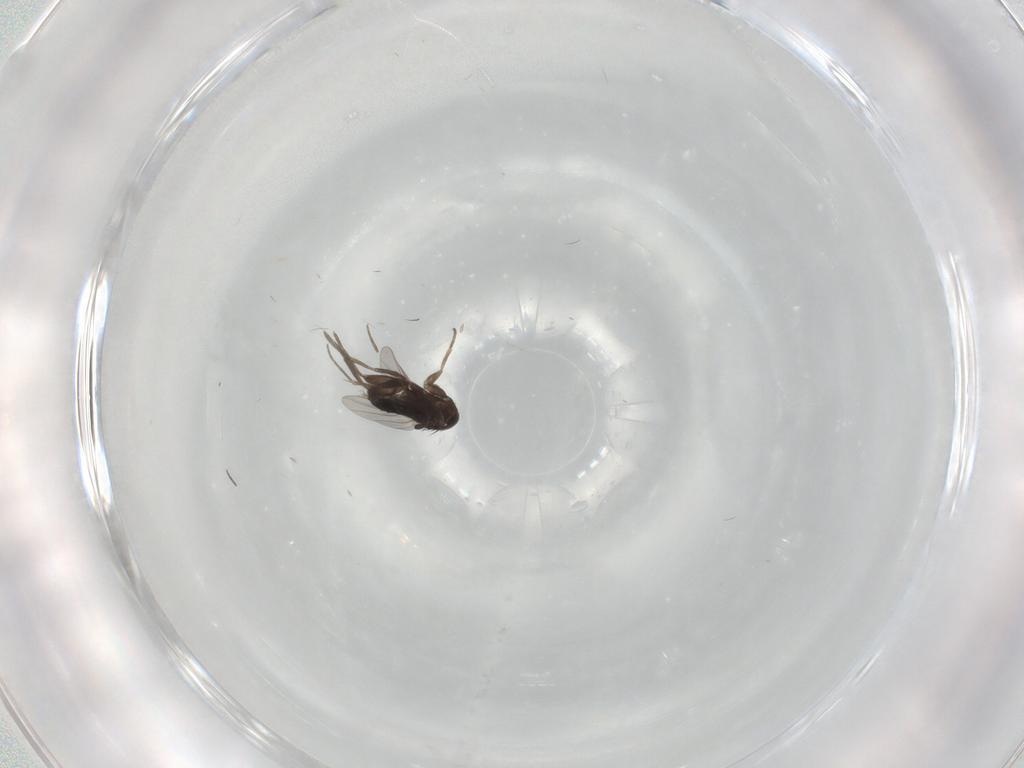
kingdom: Animalia
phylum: Arthropoda
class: Insecta
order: Diptera
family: Phoridae
